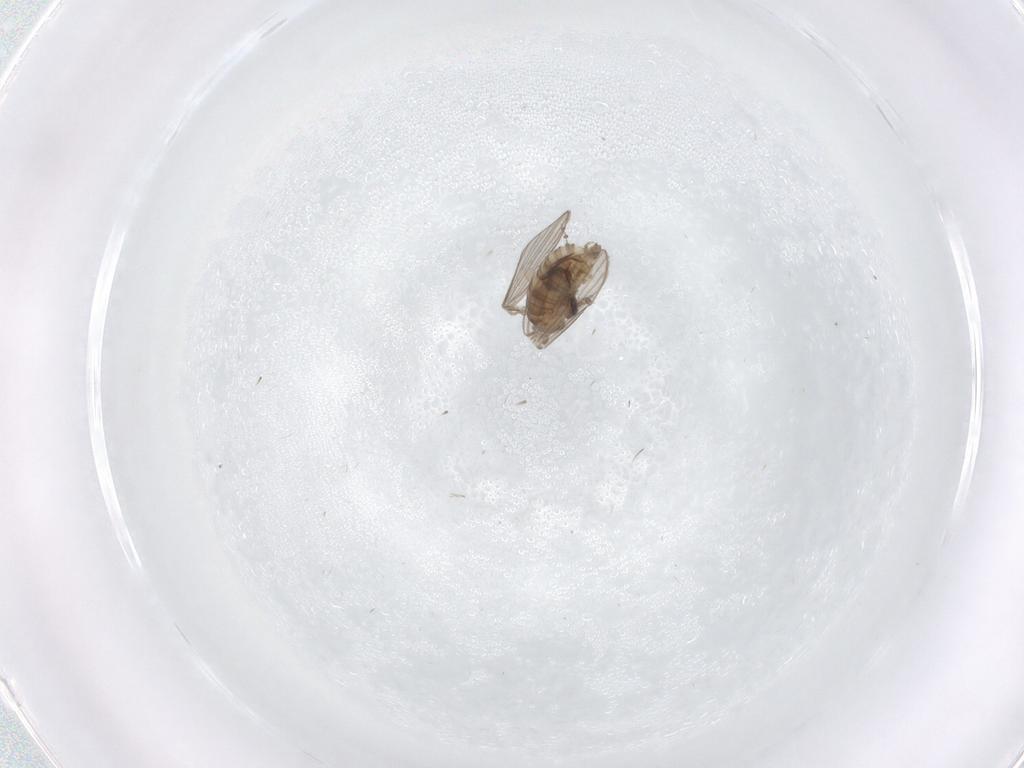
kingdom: Animalia
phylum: Arthropoda
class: Insecta
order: Diptera
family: Psychodidae
